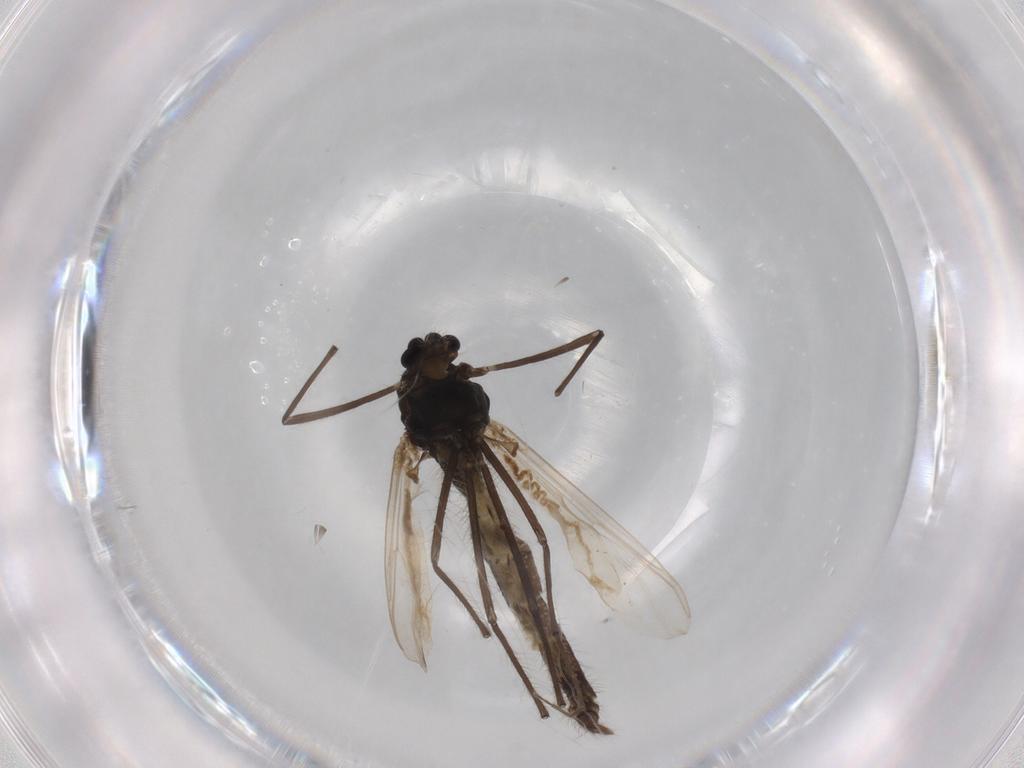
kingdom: Animalia
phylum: Arthropoda
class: Insecta
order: Diptera
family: Chironomidae
